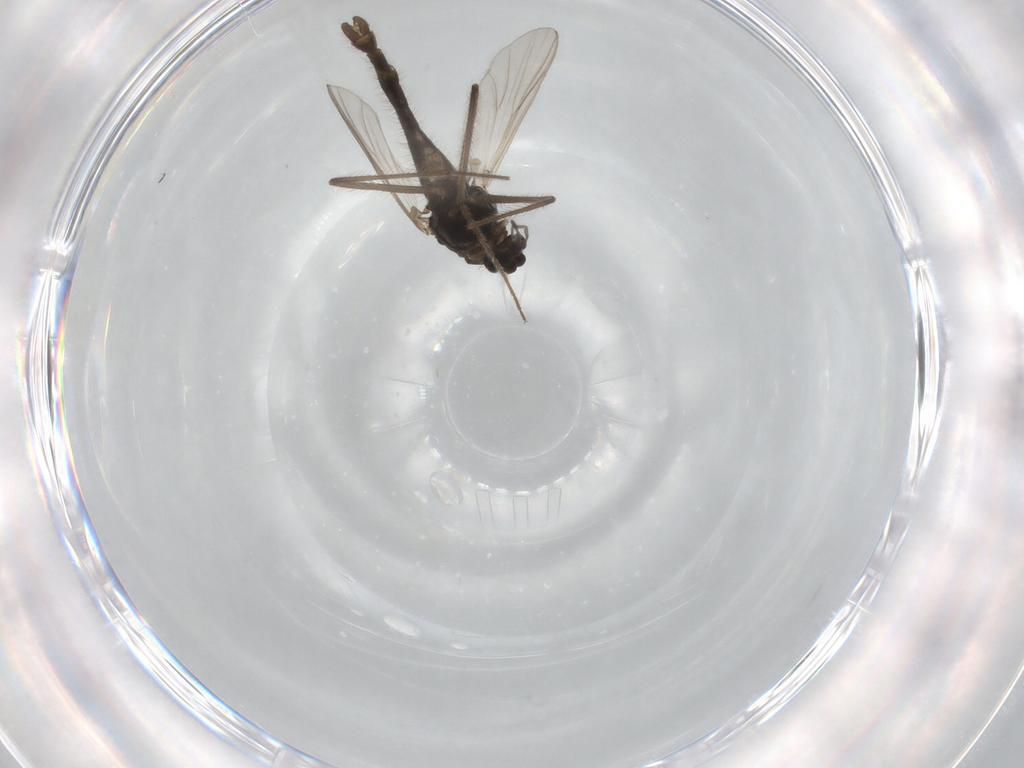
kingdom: Animalia
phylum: Arthropoda
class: Insecta
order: Diptera
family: Chironomidae
